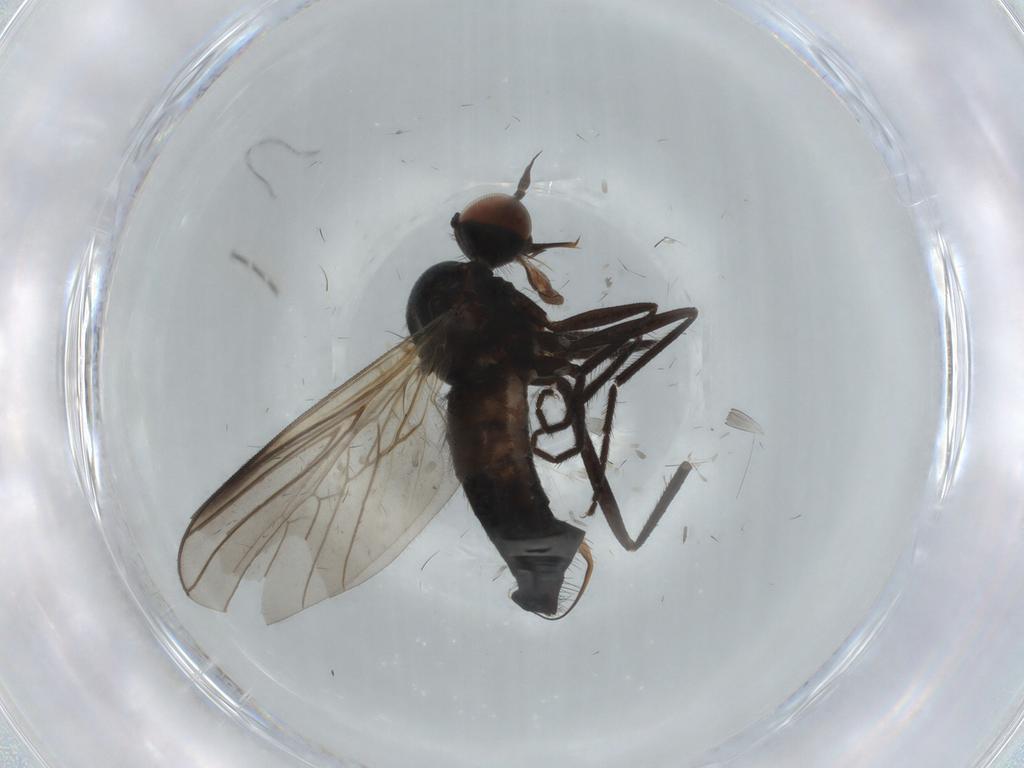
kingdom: Animalia
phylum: Arthropoda
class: Insecta
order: Diptera
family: Empididae
